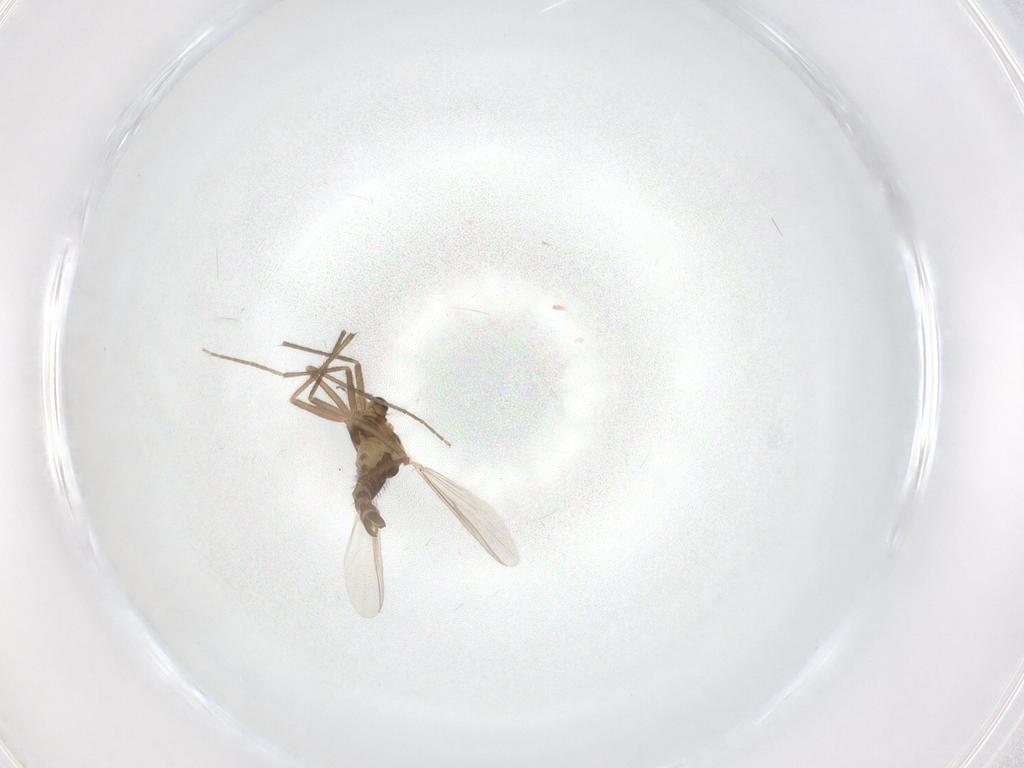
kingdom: Animalia
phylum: Arthropoda
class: Insecta
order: Diptera
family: Chironomidae
